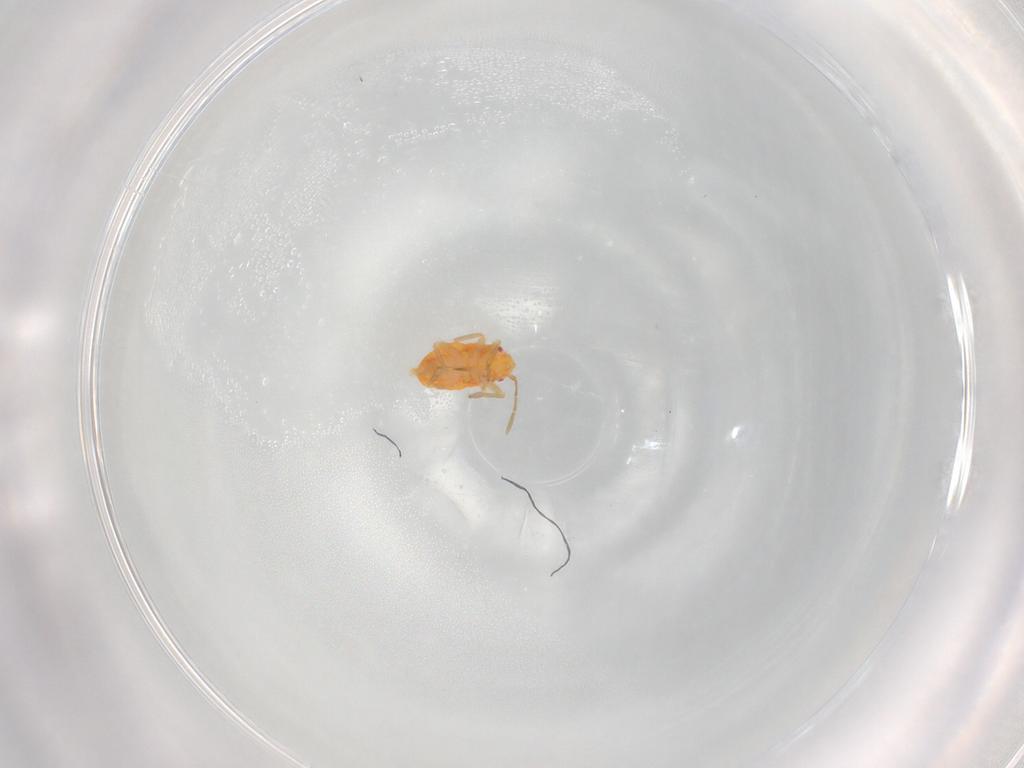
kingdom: Animalia
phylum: Arthropoda
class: Insecta
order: Hemiptera
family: Miridae
